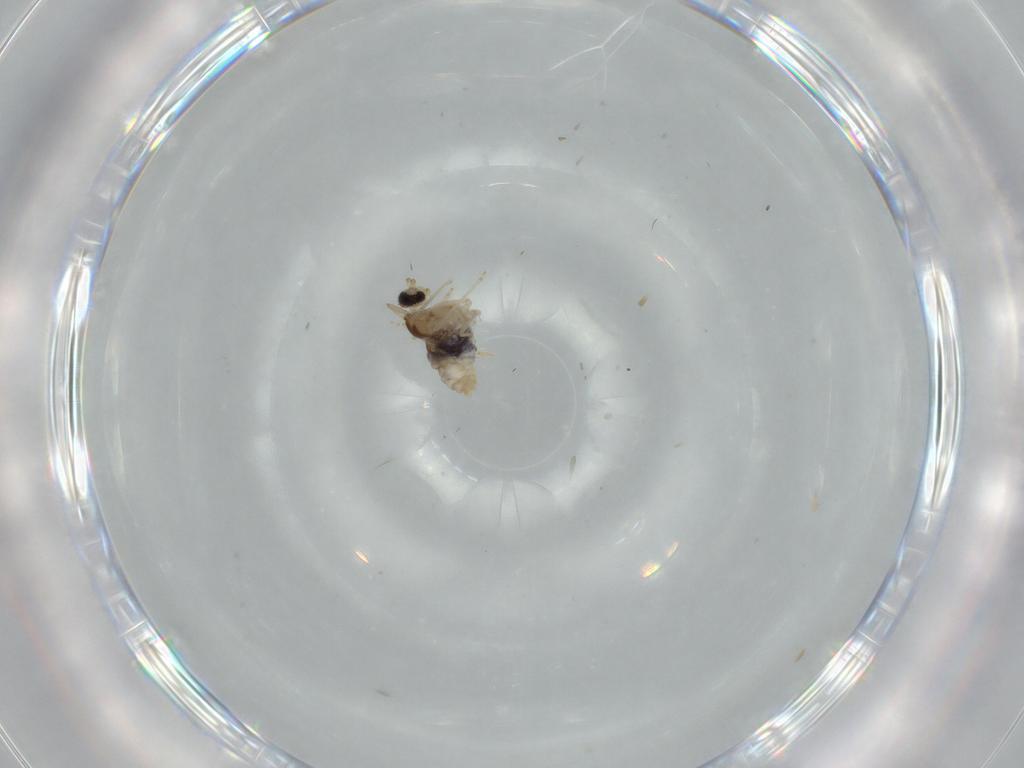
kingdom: Animalia
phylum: Arthropoda
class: Insecta
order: Diptera
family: Cecidomyiidae
